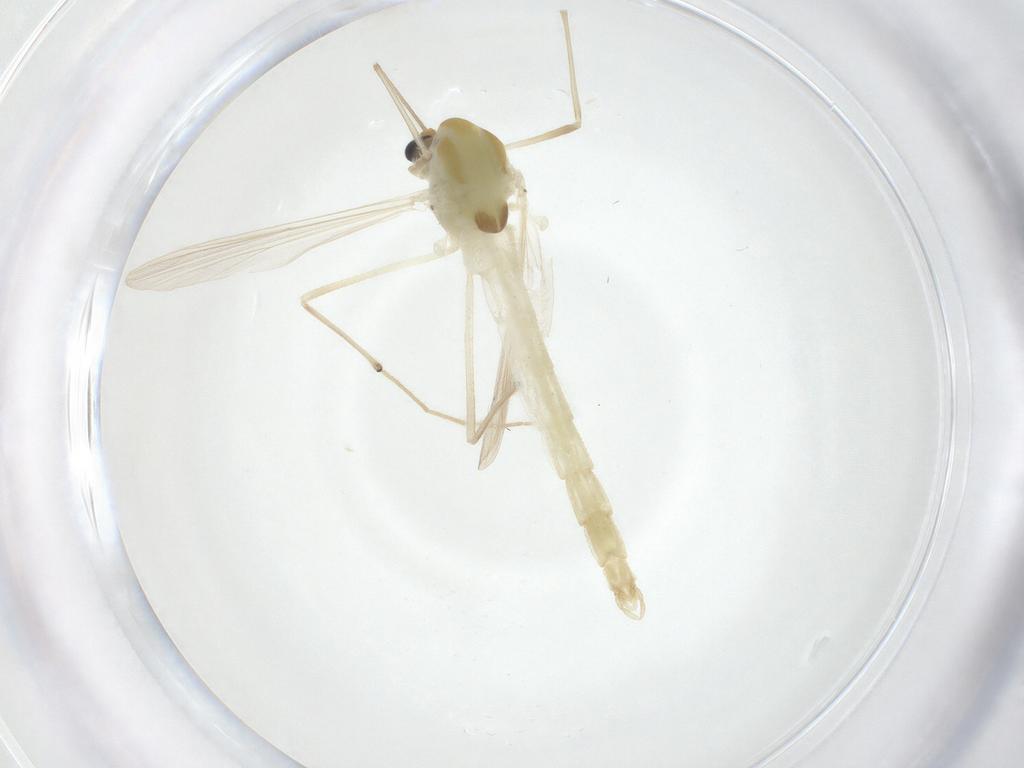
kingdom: Animalia
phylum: Arthropoda
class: Insecta
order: Diptera
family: Chironomidae
